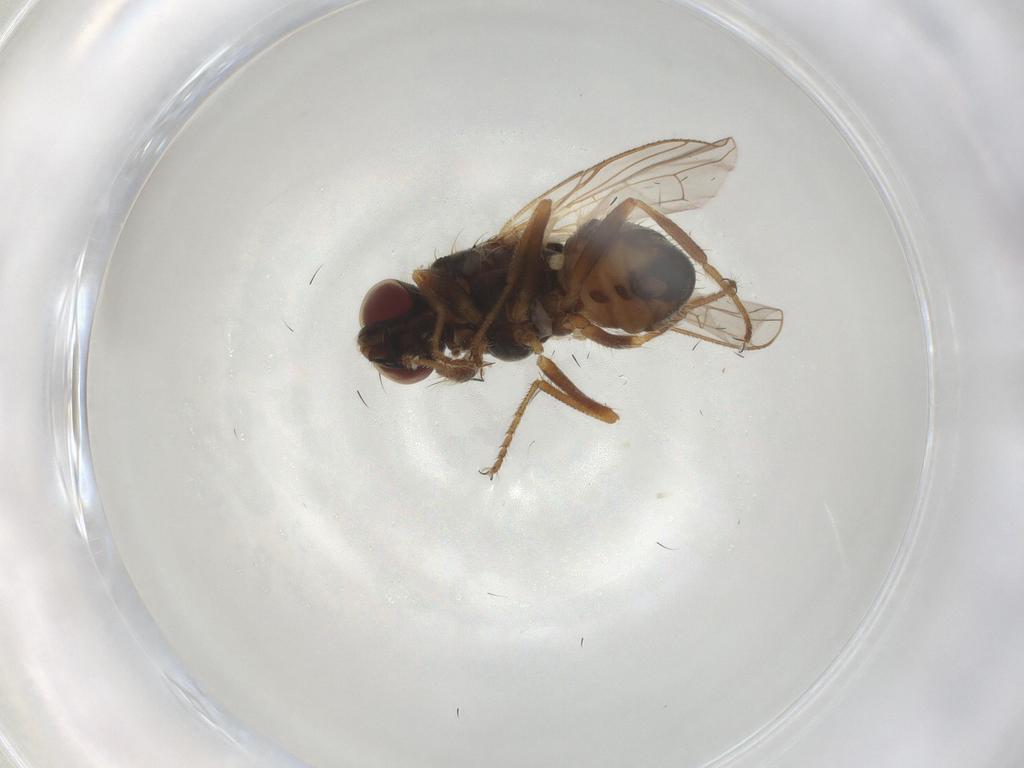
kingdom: Animalia
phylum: Arthropoda
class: Insecta
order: Diptera
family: Muscidae
